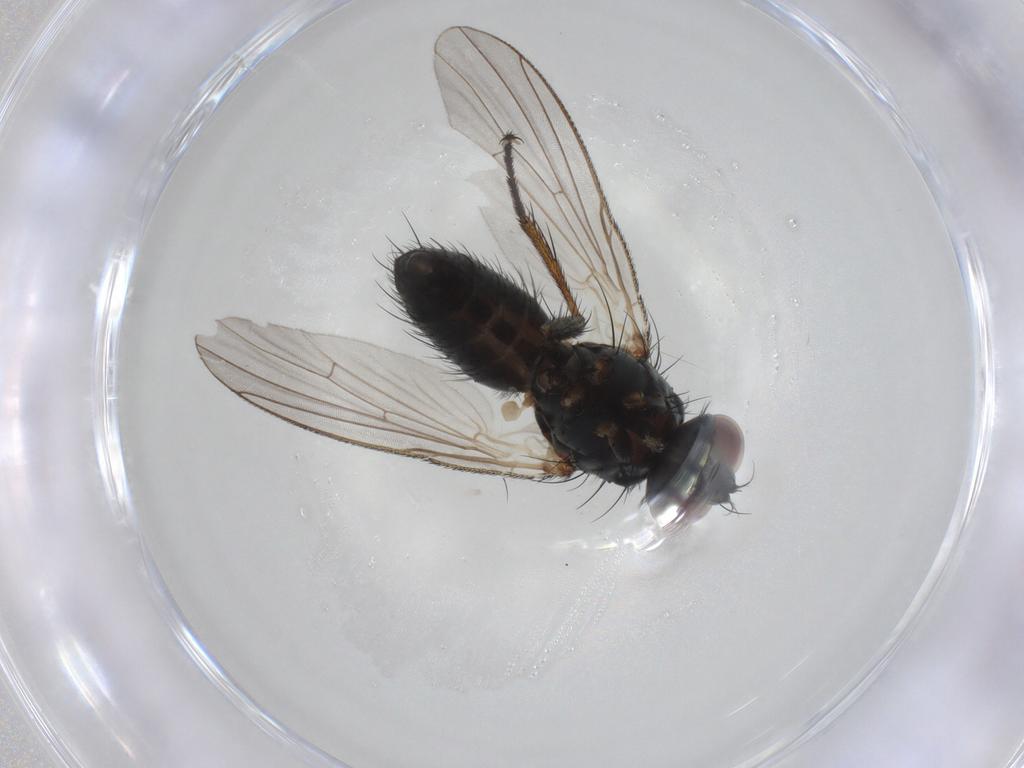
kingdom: Animalia
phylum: Arthropoda
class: Insecta
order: Diptera
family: Muscidae
